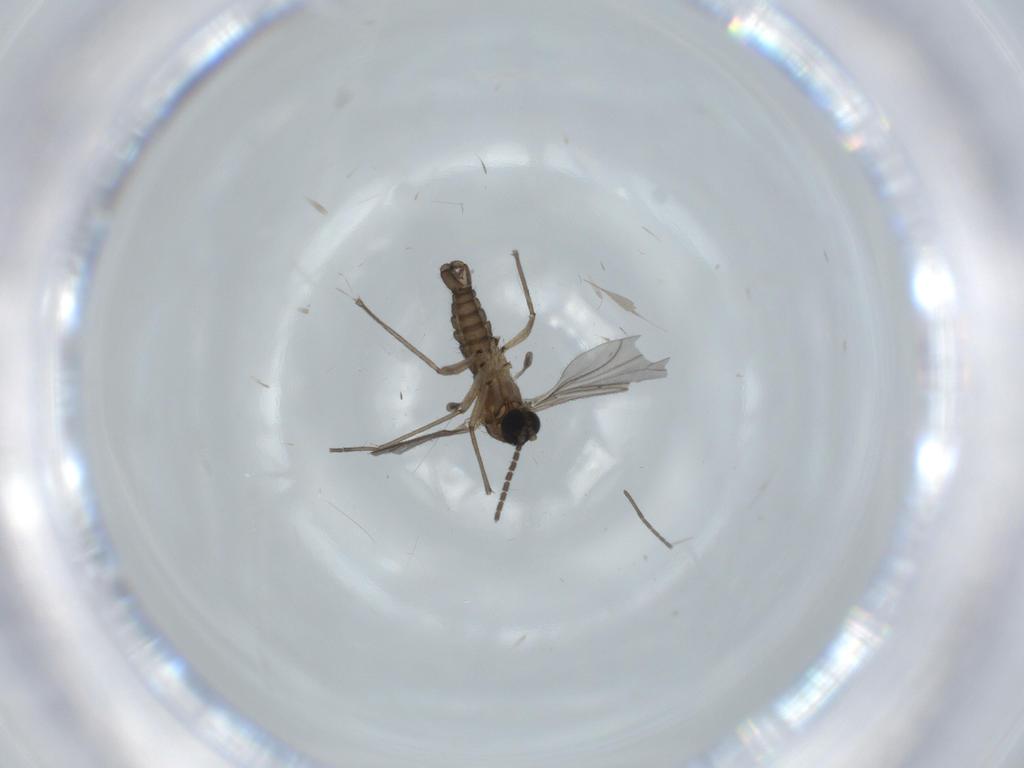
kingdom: Animalia
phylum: Arthropoda
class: Insecta
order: Diptera
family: Sciaridae
